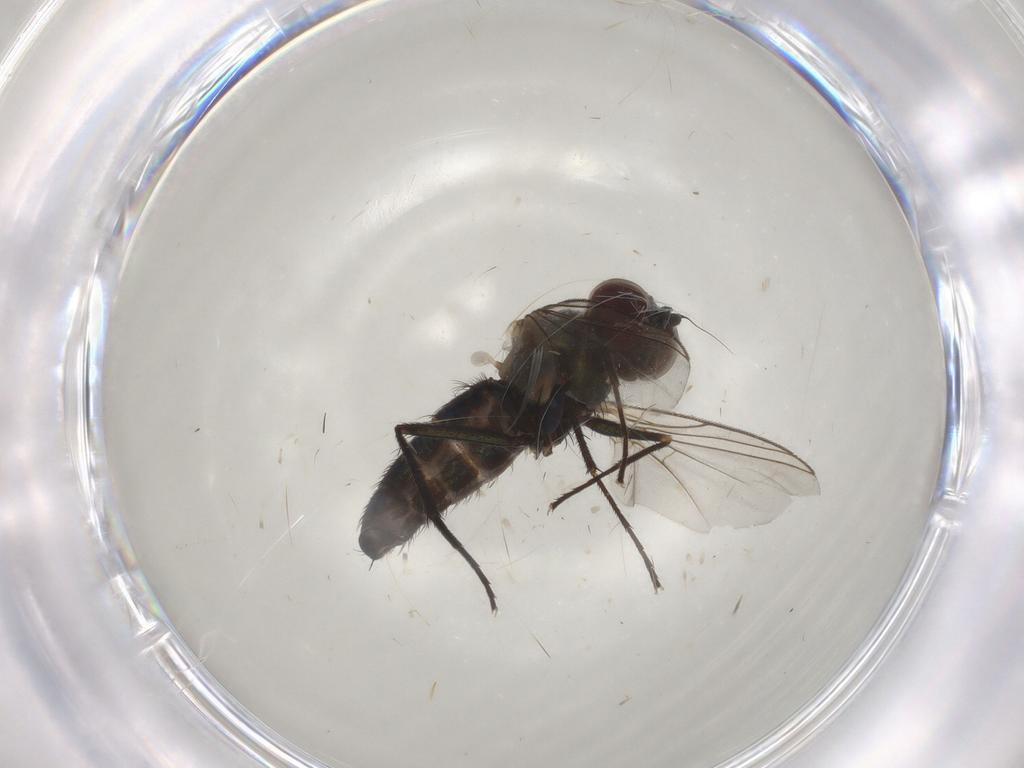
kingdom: Animalia
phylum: Arthropoda
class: Insecta
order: Diptera
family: Dolichopodidae
